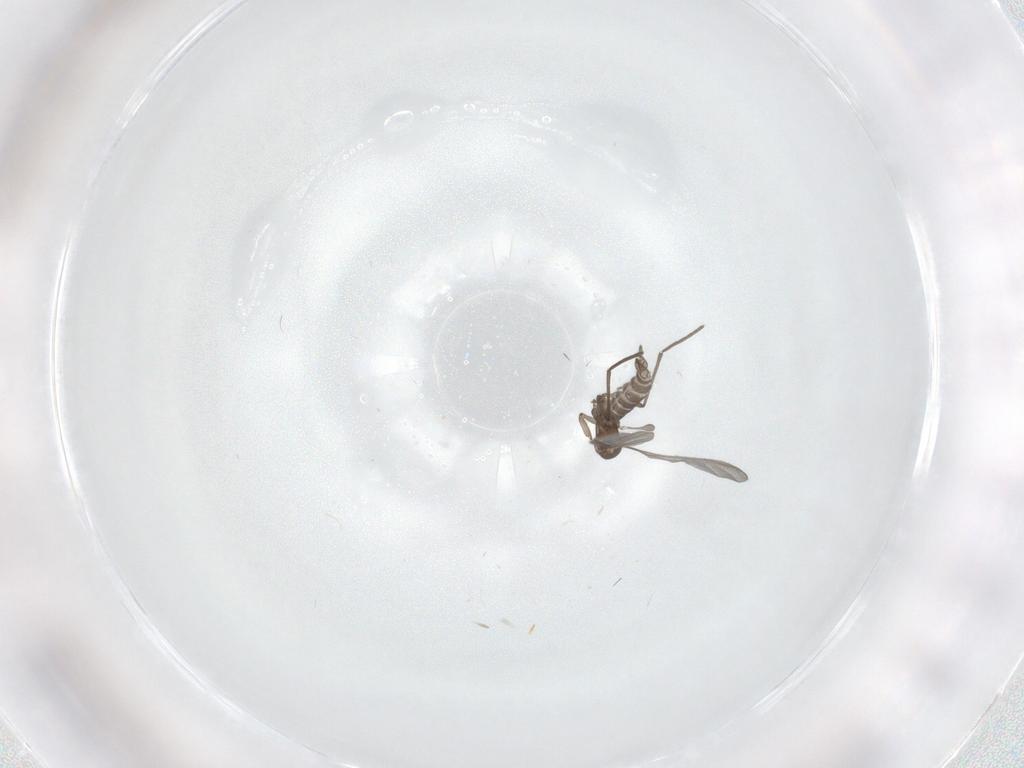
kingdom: Animalia
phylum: Arthropoda
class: Insecta
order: Diptera
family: Sciaridae
